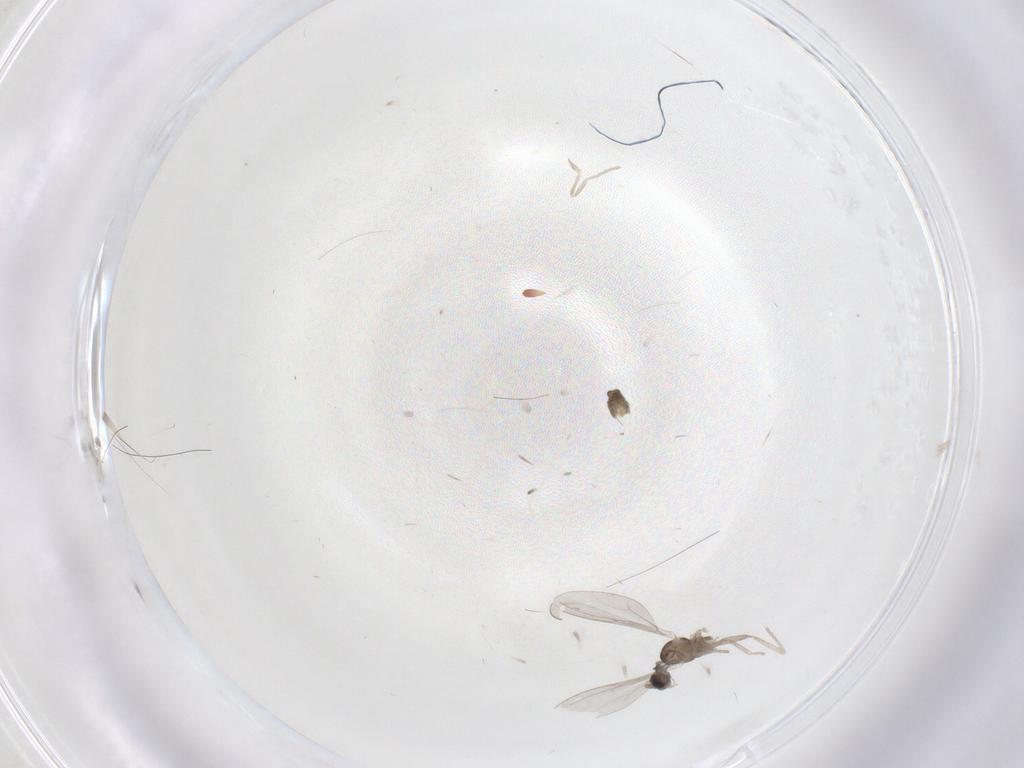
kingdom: Animalia
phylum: Arthropoda
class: Insecta
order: Diptera
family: Cecidomyiidae
